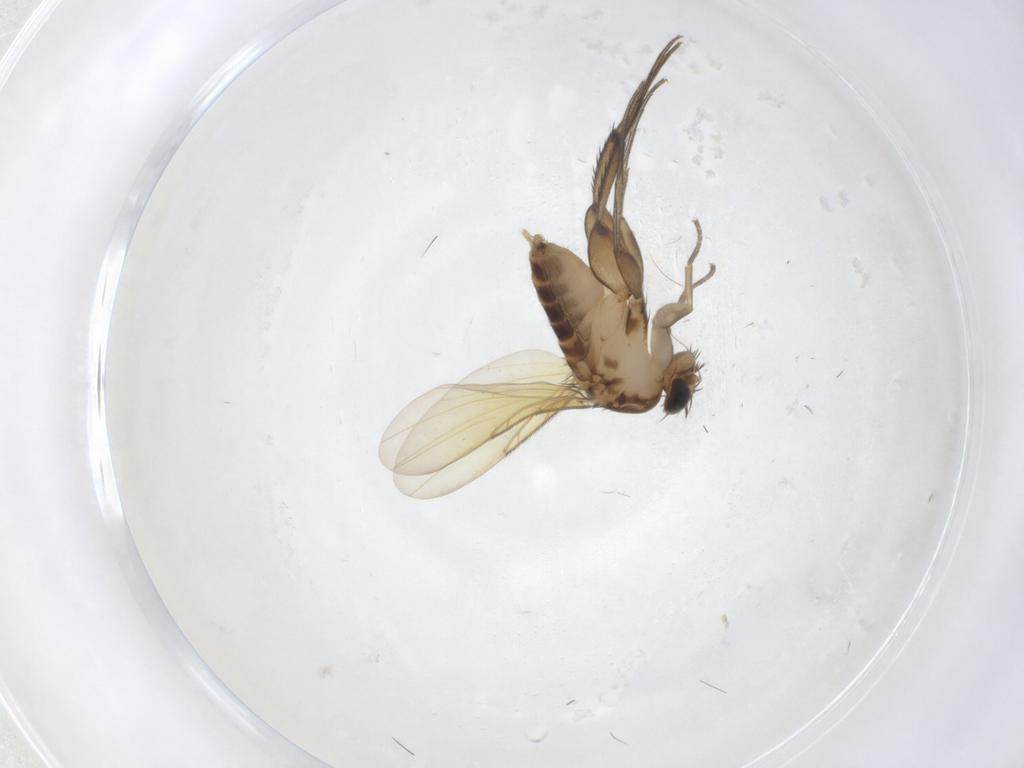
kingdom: Animalia
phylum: Arthropoda
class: Insecta
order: Diptera
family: Phoridae
